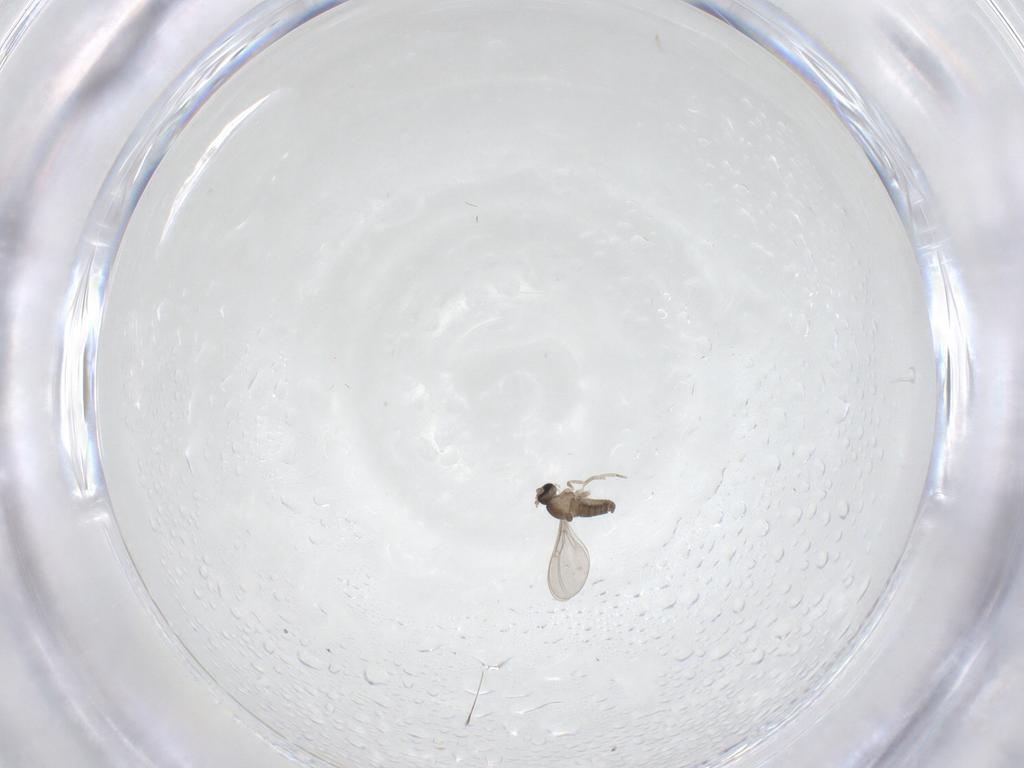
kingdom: Animalia
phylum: Arthropoda
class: Insecta
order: Diptera
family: Cecidomyiidae
